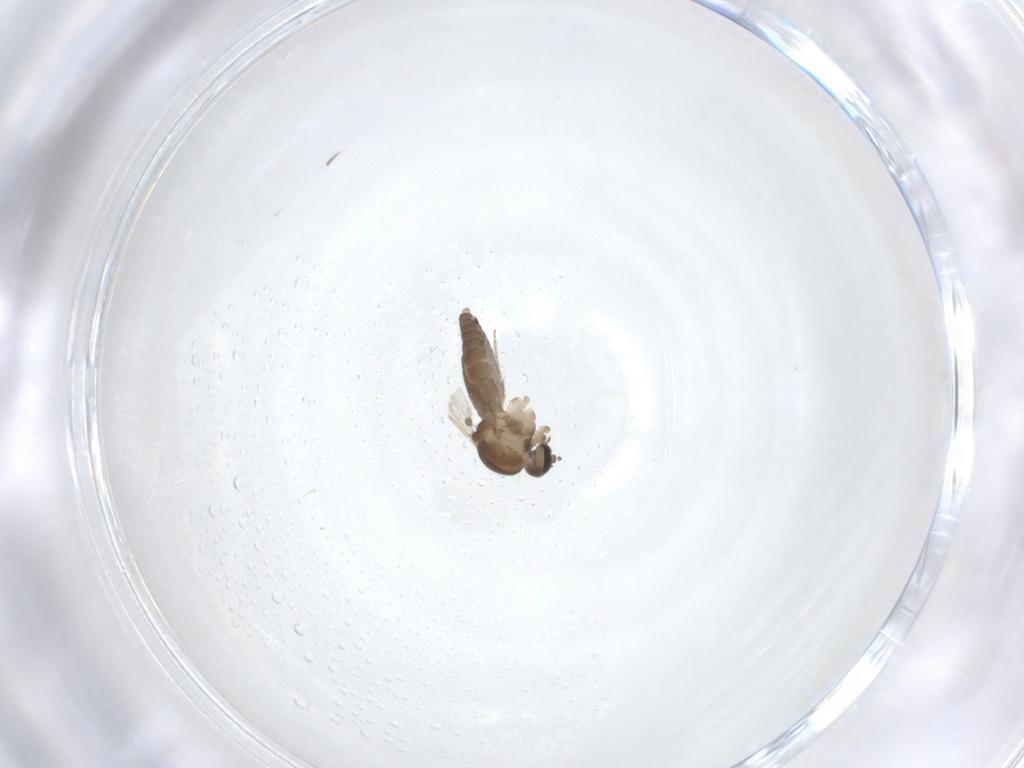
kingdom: Animalia
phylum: Arthropoda
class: Insecta
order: Diptera
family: Ceratopogonidae
